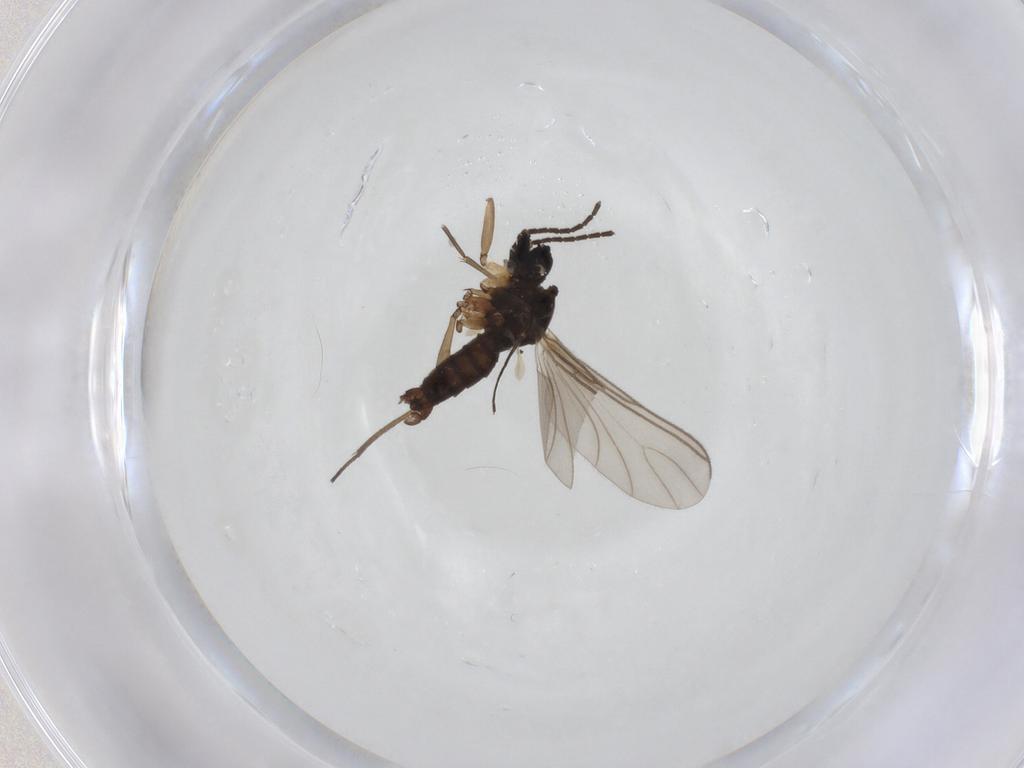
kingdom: Animalia
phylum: Arthropoda
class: Insecta
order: Diptera
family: Sciaridae
